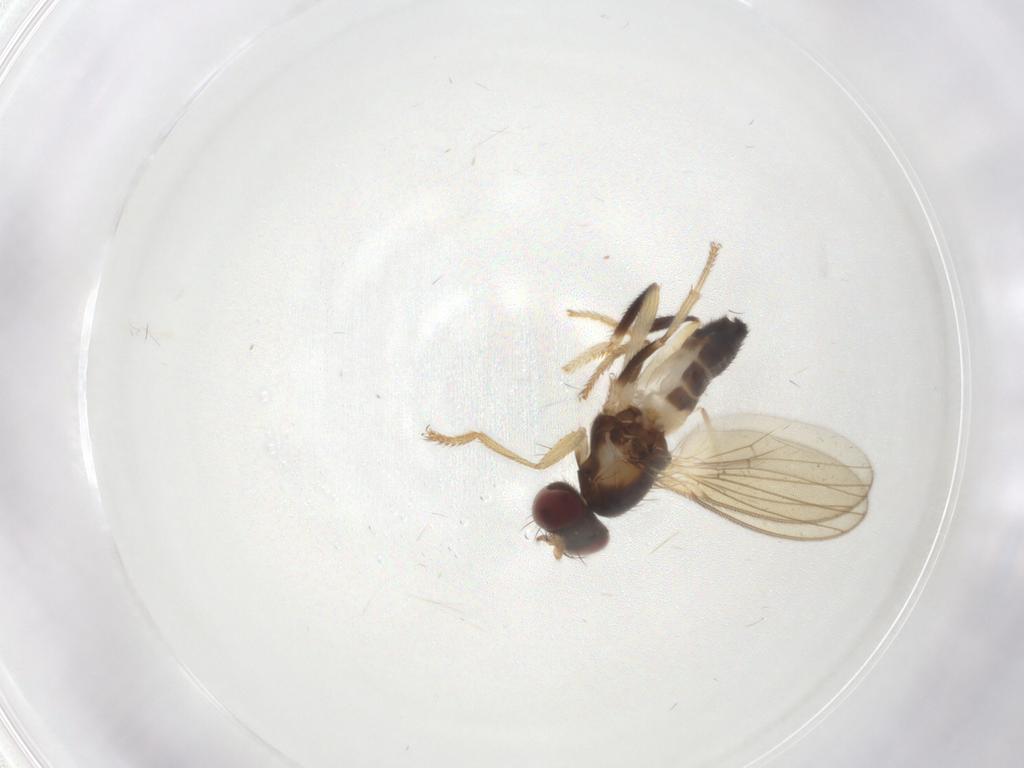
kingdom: Animalia
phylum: Arthropoda
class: Insecta
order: Diptera
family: Periscelididae
